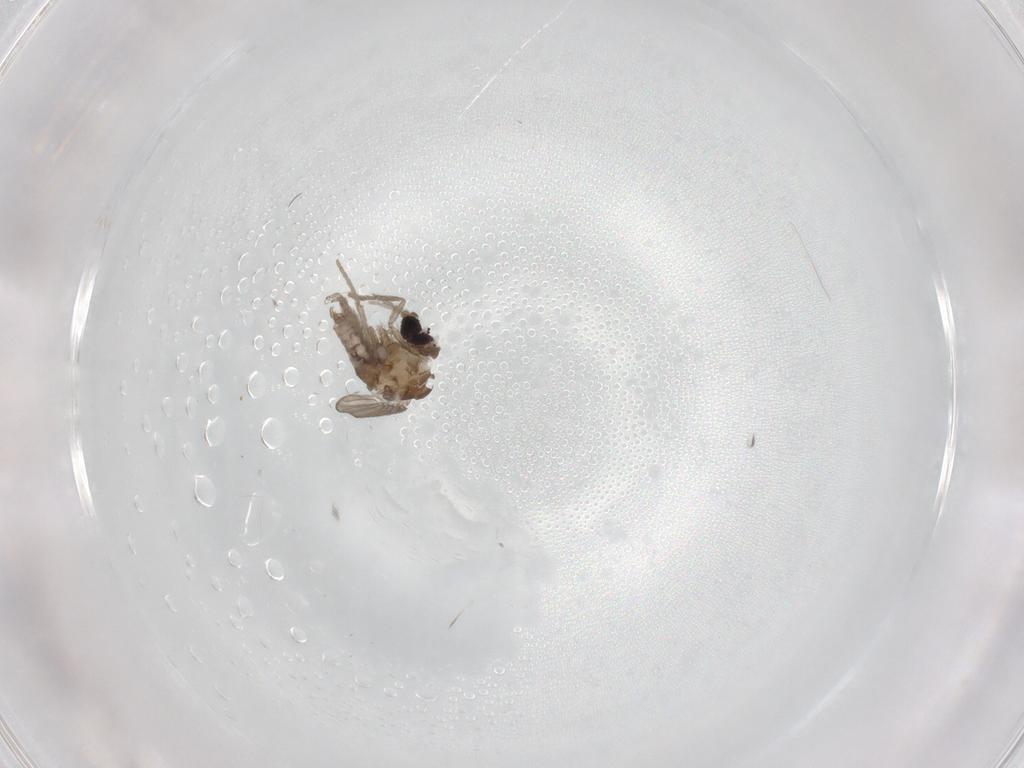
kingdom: Animalia
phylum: Arthropoda
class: Insecta
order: Diptera
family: Psychodidae
